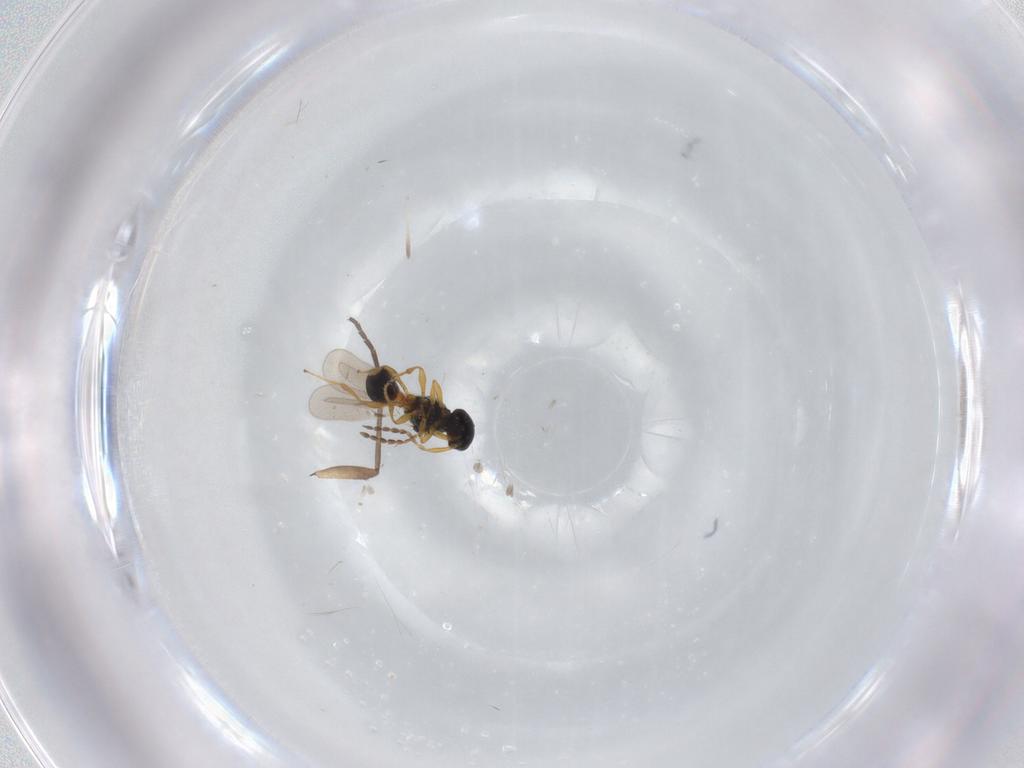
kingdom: Animalia
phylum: Arthropoda
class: Insecta
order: Hymenoptera
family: Platygastridae
